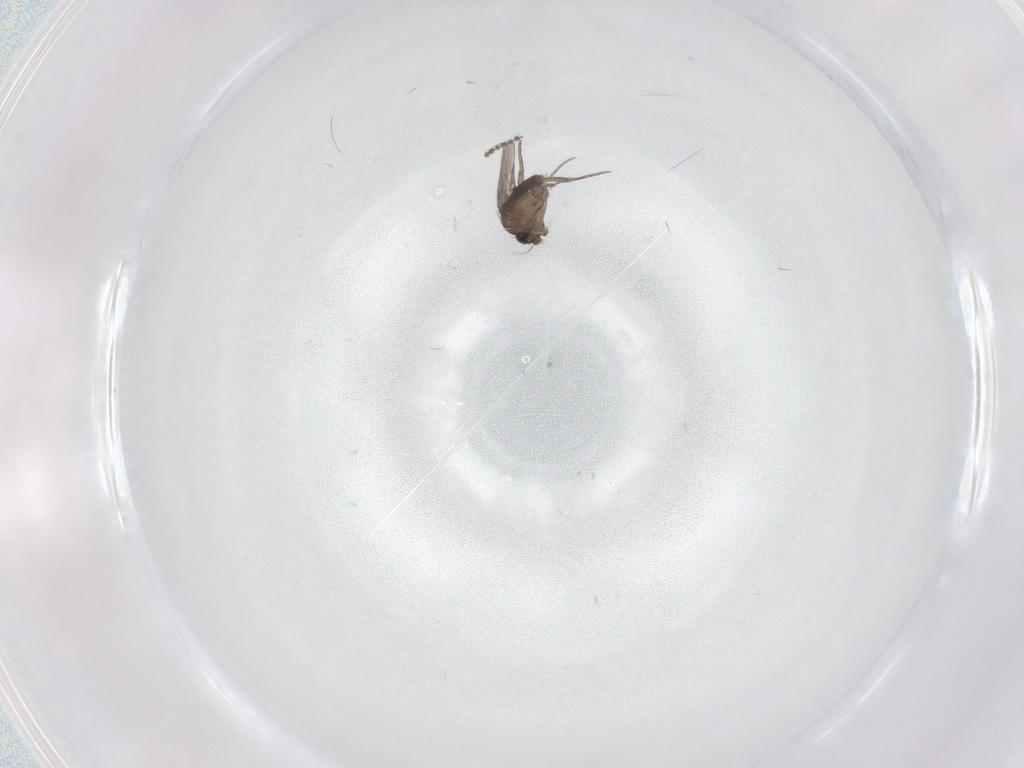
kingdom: Animalia
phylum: Arthropoda
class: Insecta
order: Diptera
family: Phoridae
